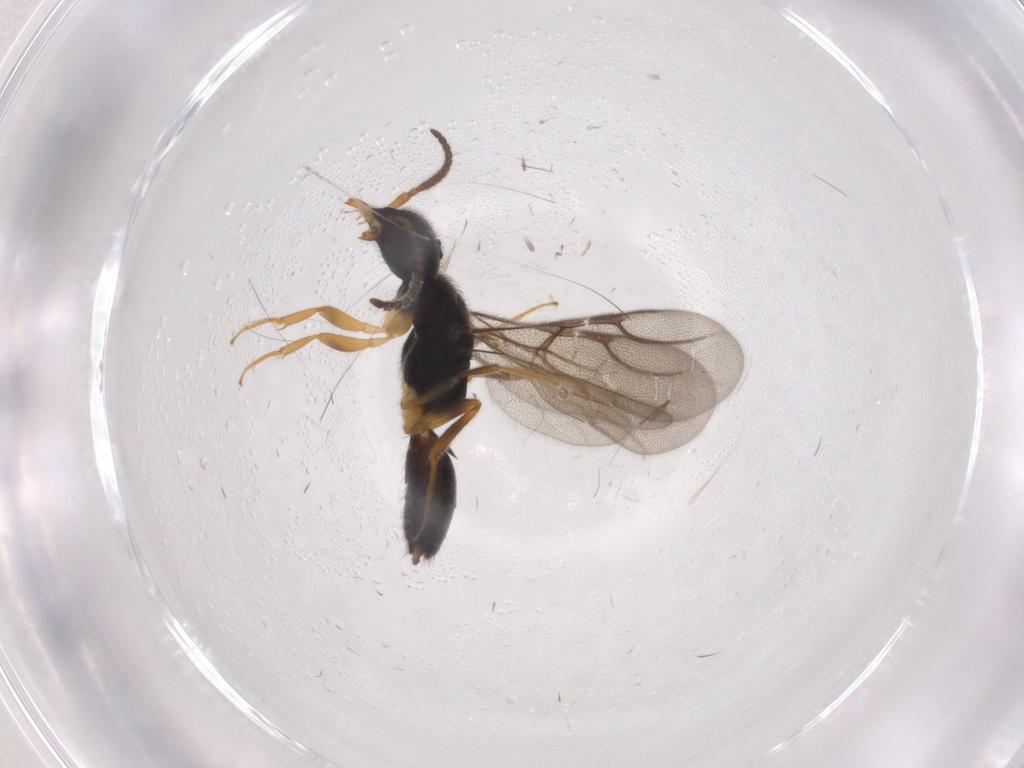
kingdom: Animalia
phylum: Arthropoda
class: Insecta
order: Hymenoptera
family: Bethylidae
